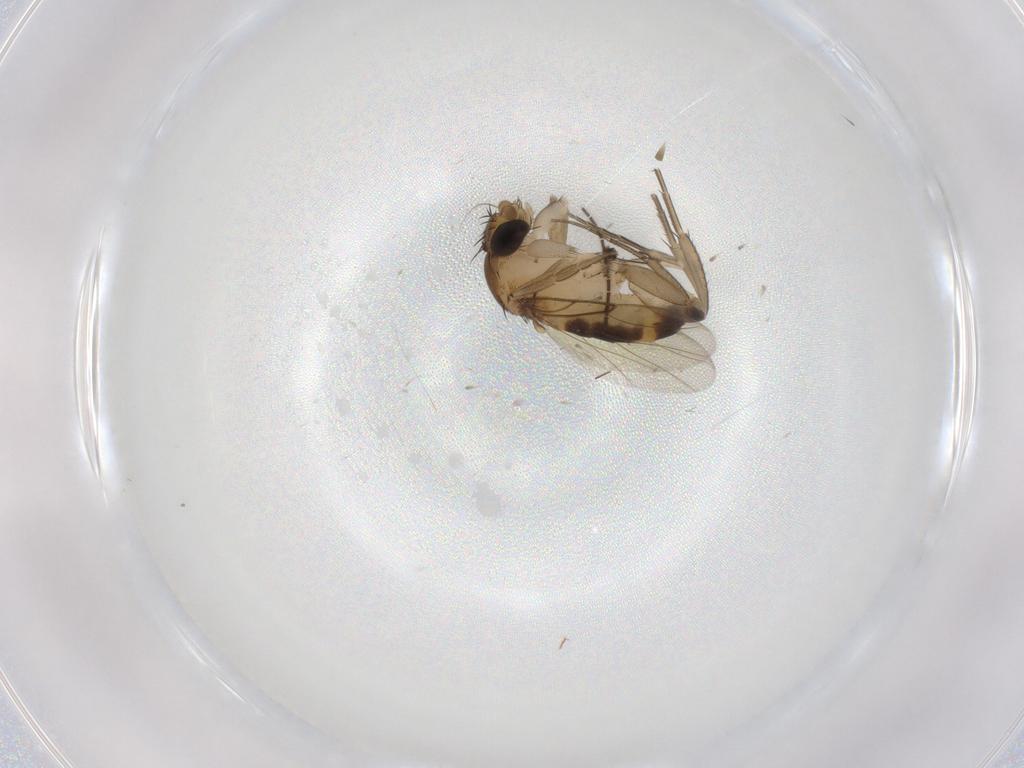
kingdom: Animalia
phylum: Arthropoda
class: Insecta
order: Diptera
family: Cecidomyiidae
